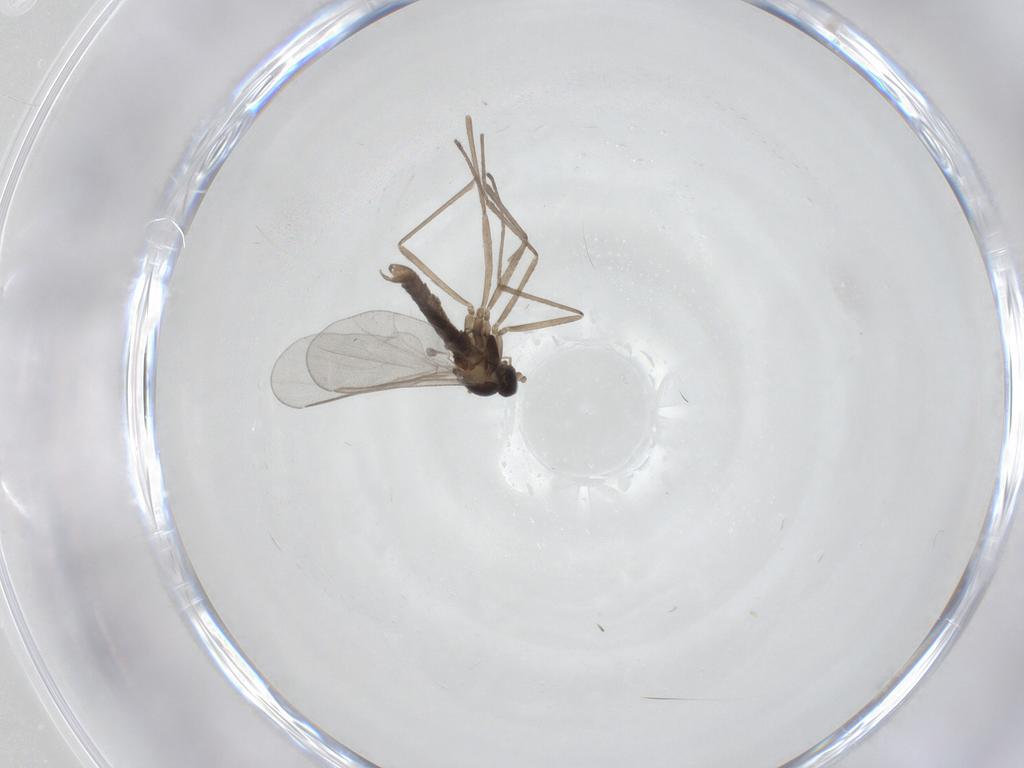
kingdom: Animalia
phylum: Arthropoda
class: Insecta
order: Diptera
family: Cecidomyiidae
